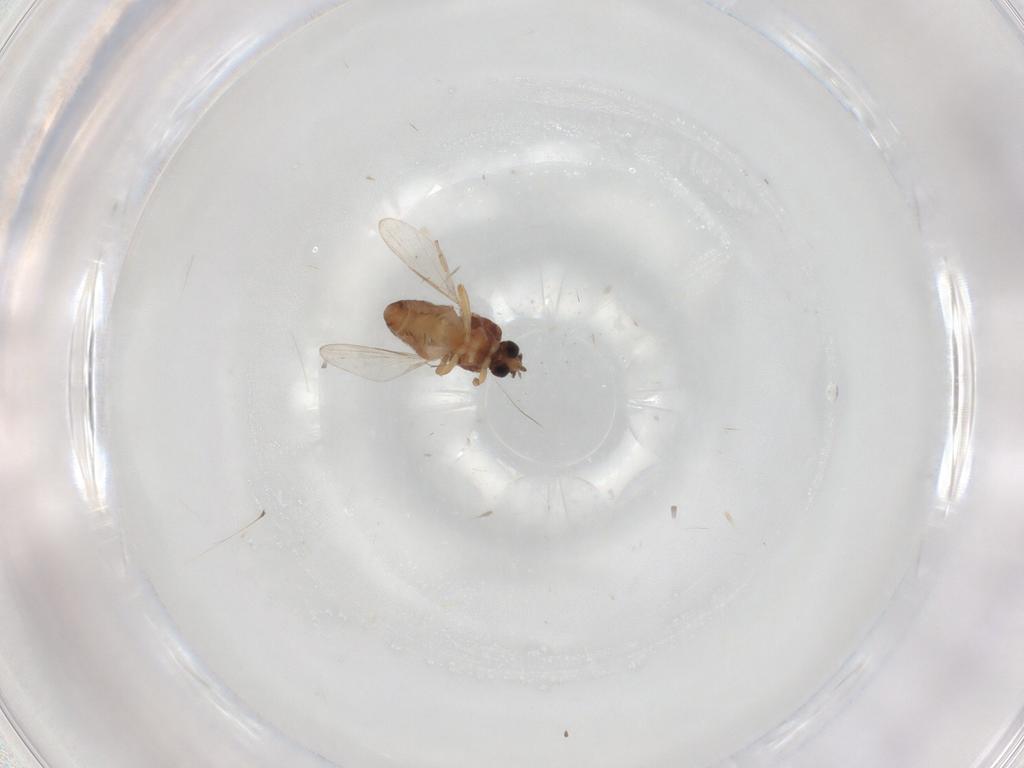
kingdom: Animalia
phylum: Arthropoda
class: Insecta
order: Diptera
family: Ceratopogonidae
